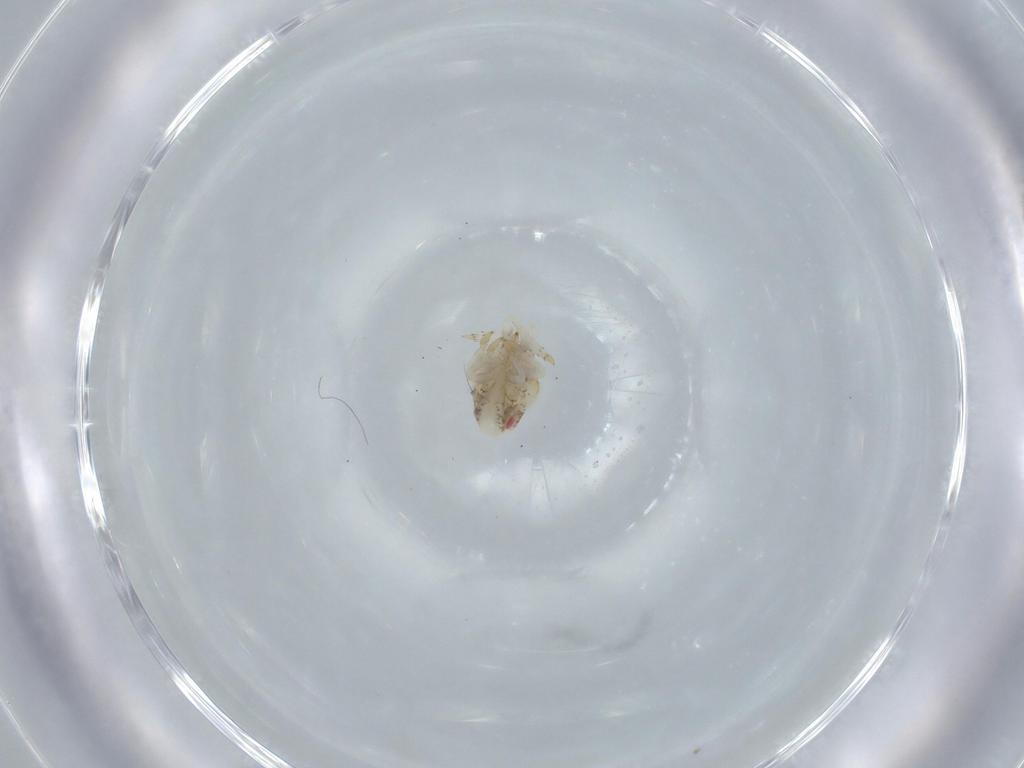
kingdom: Animalia
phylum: Arthropoda
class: Insecta
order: Hemiptera
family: Acanaloniidae
